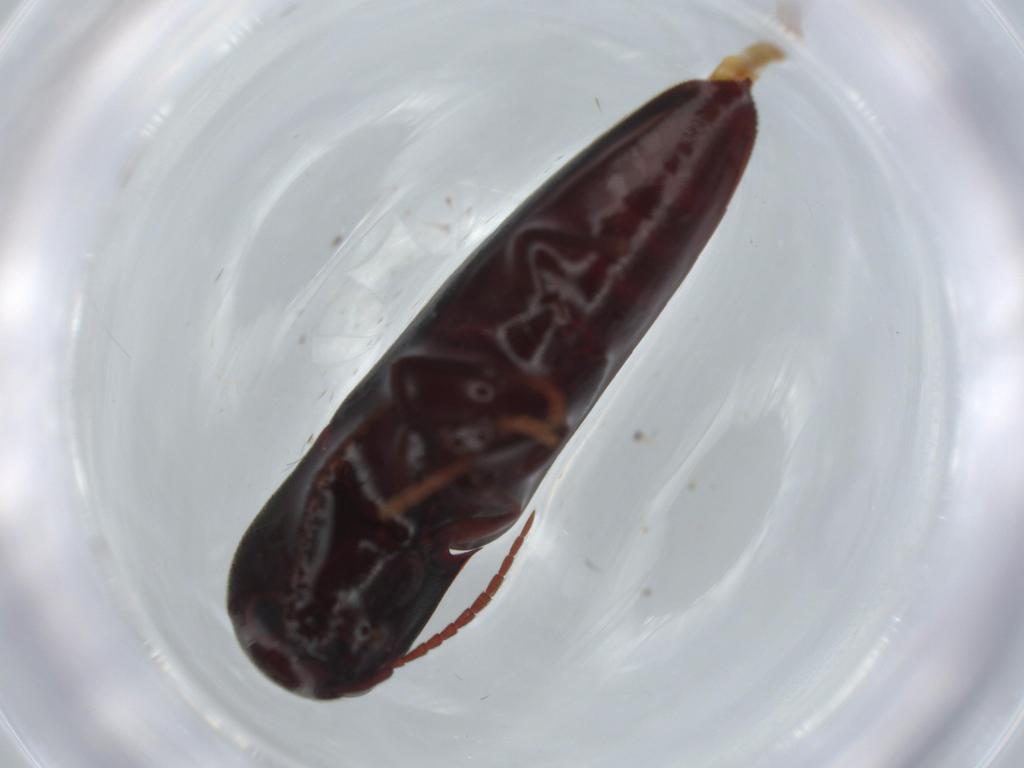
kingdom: Animalia
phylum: Arthropoda
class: Insecta
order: Coleoptera
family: Eucnemidae
